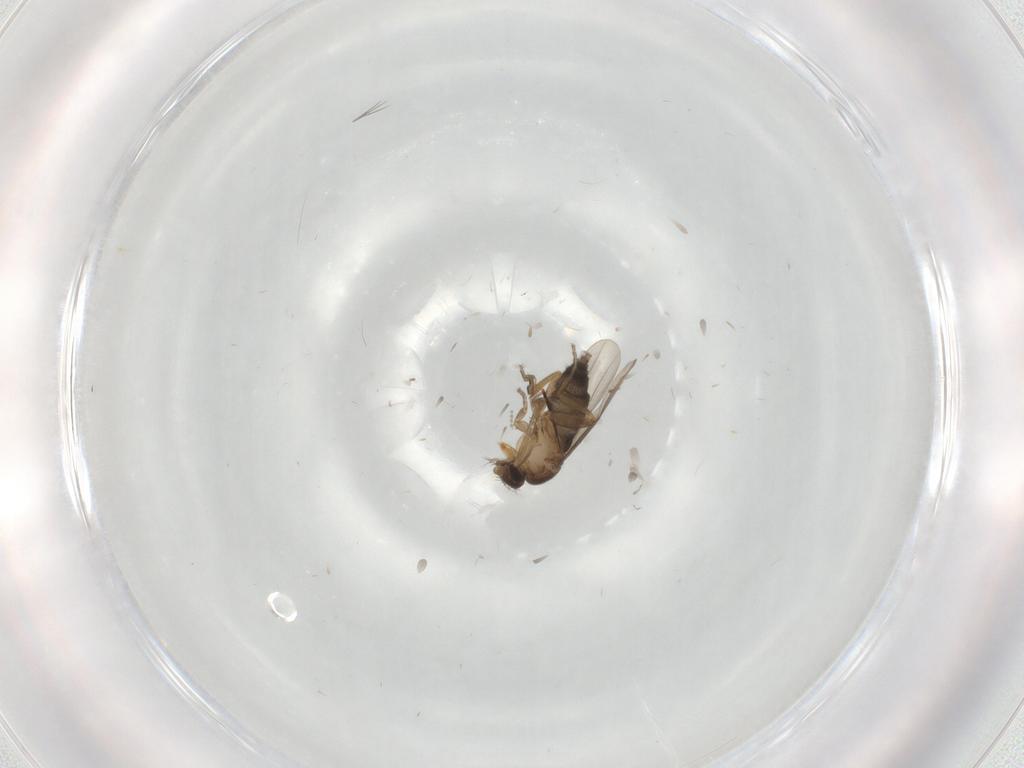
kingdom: Animalia
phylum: Arthropoda
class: Insecta
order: Diptera
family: Phoridae
